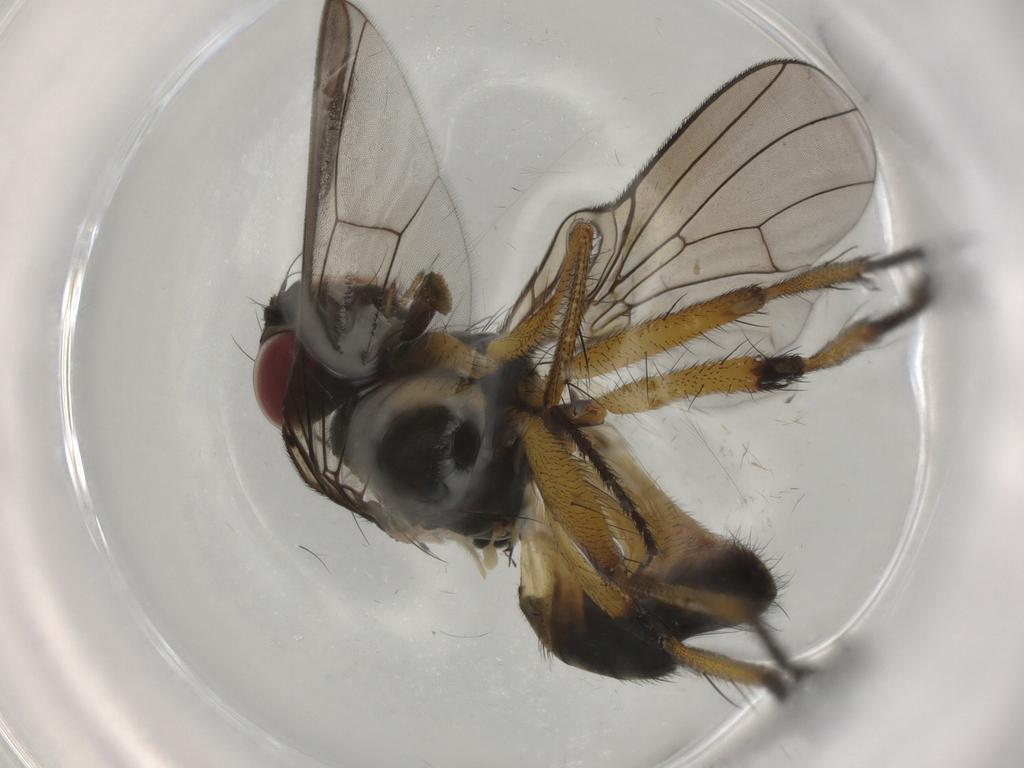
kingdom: Animalia
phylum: Arthropoda
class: Insecta
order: Diptera
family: Muscidae
